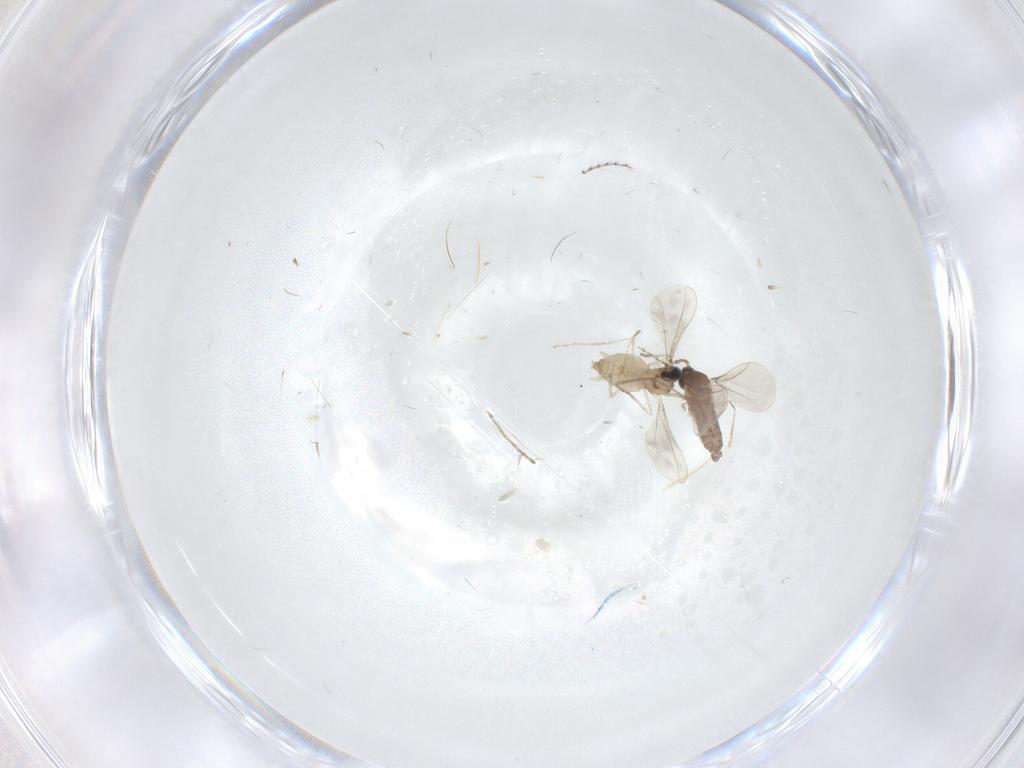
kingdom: Animalia
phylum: Arthropoda
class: Insecta
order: Diptera
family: Cecidomyiidae
